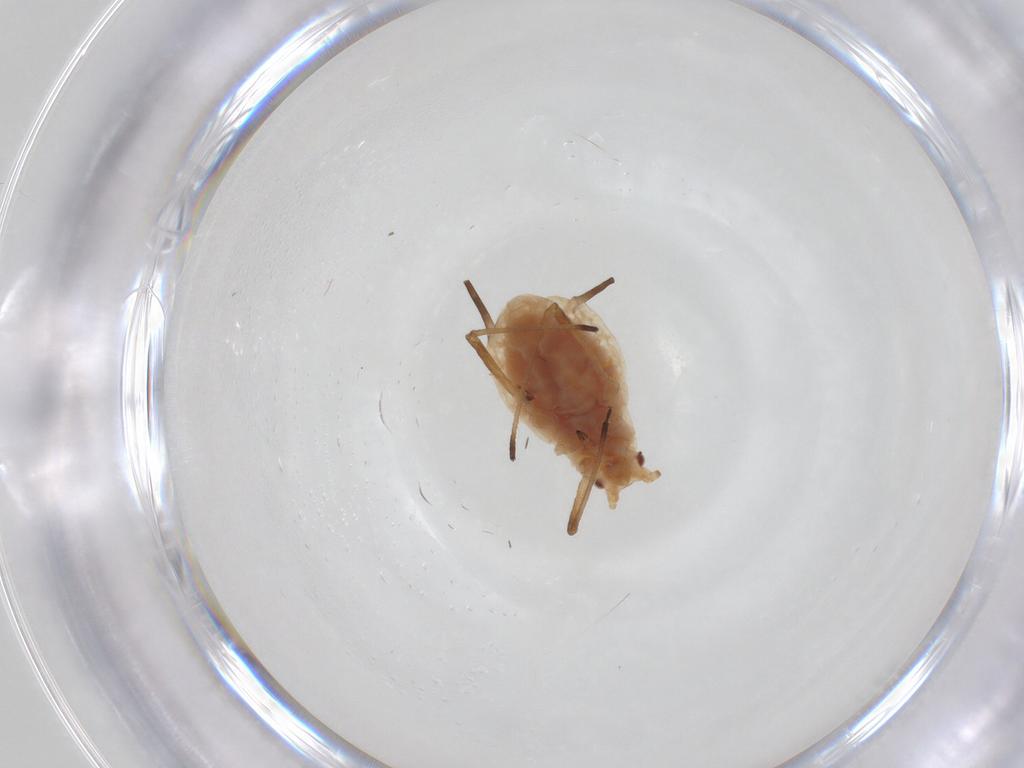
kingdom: Animalia
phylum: Arthropoda
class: Insecta
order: Hemiptera
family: Aphididae
